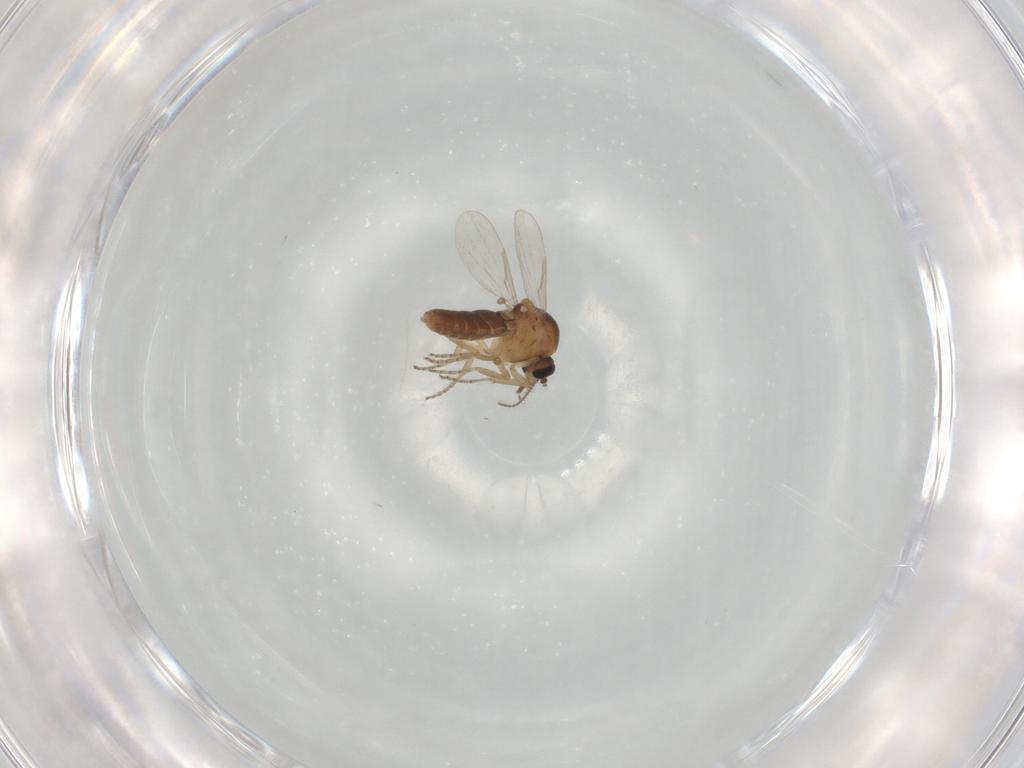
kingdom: Animalia
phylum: Arthropoda
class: Insecta
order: Diptera
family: Ceratopogonidae
